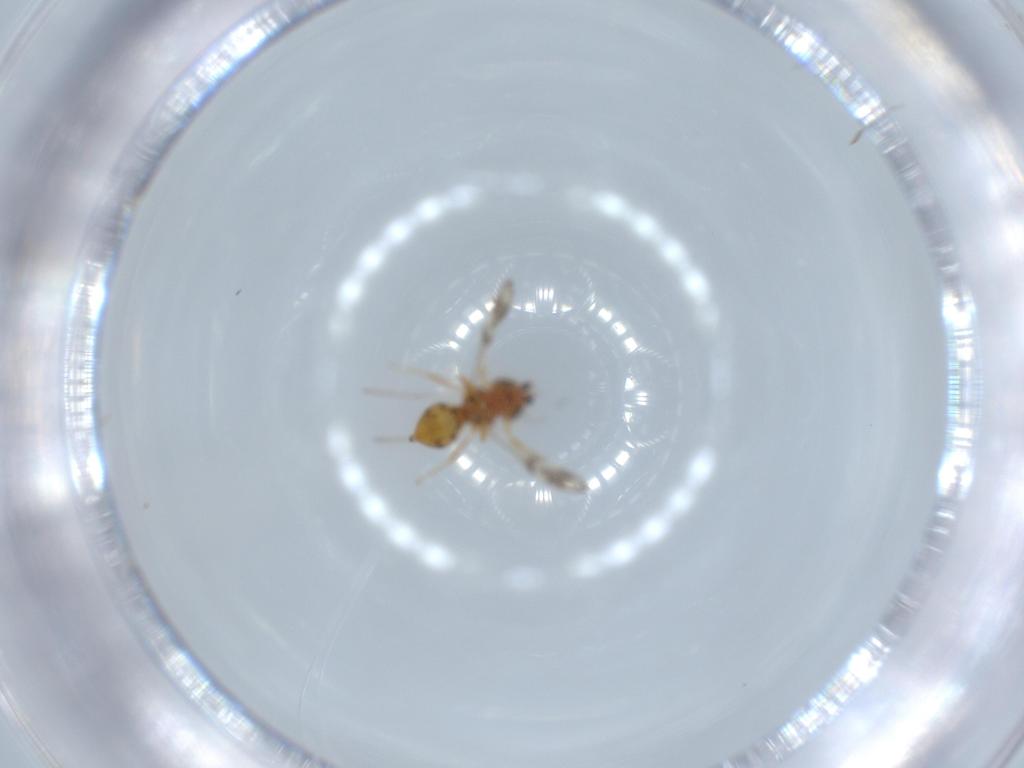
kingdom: Animalia
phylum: Arthropoda
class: Insecta
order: Hymenoptera
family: Scelionidae
